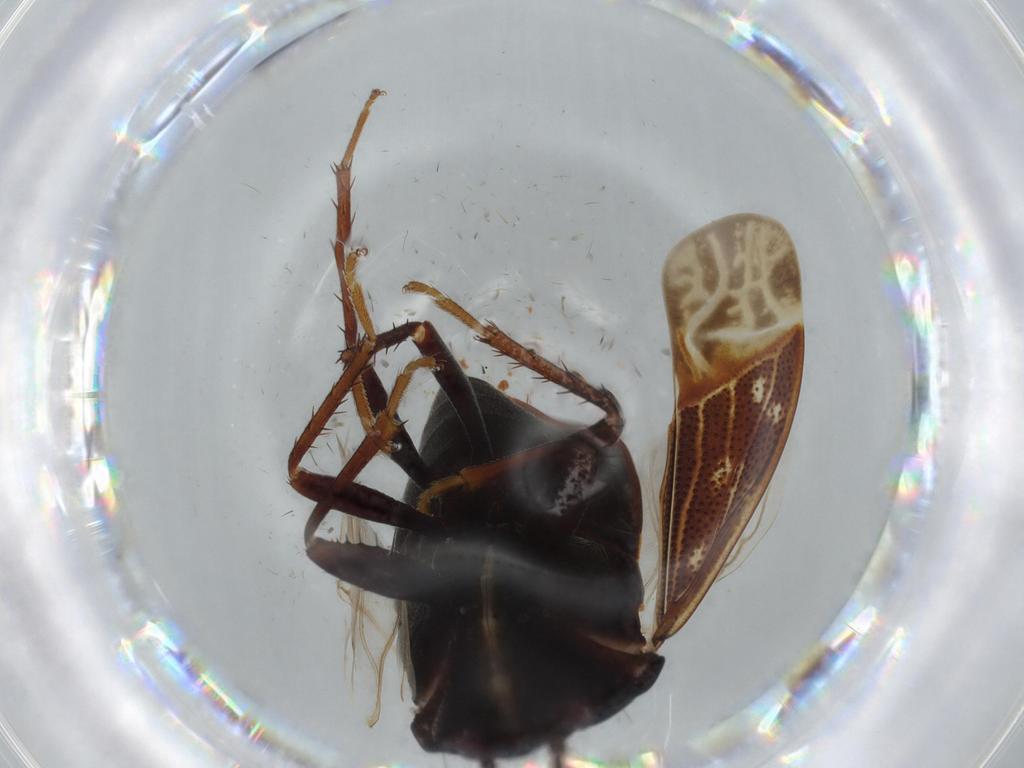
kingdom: Animalia
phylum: Arthropoda
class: Insecta
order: Hemiptera
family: Rhyparochromidae
